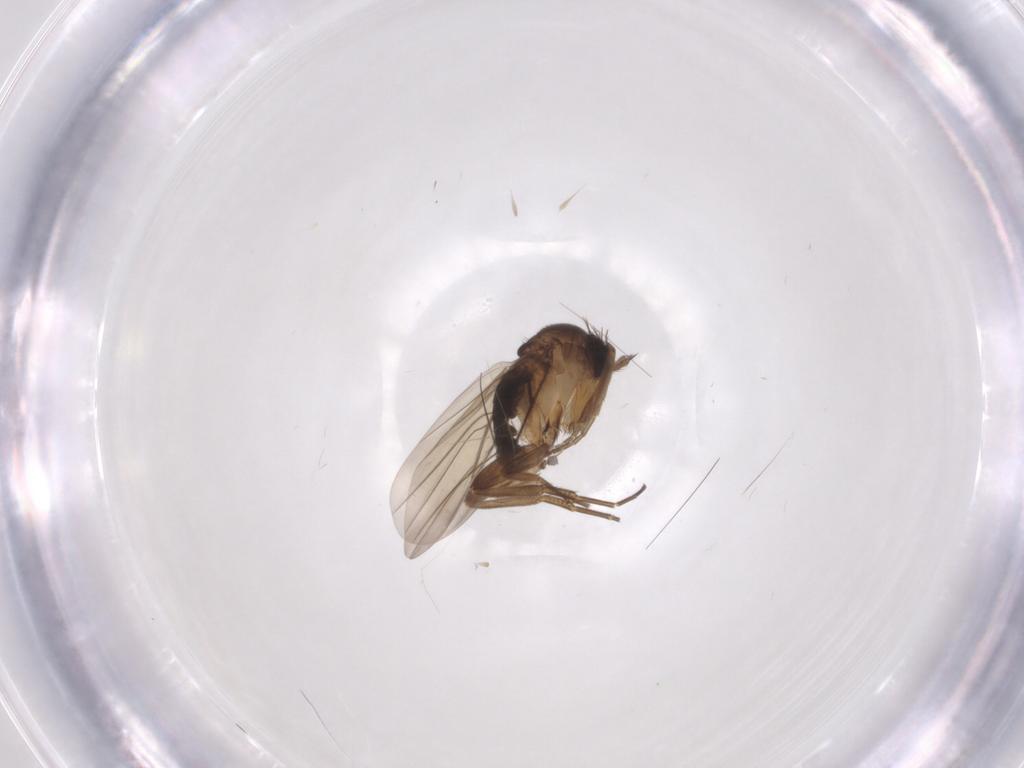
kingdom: Animalia
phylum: Arthropoda
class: Insecta
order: Diptera
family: Phoridae
